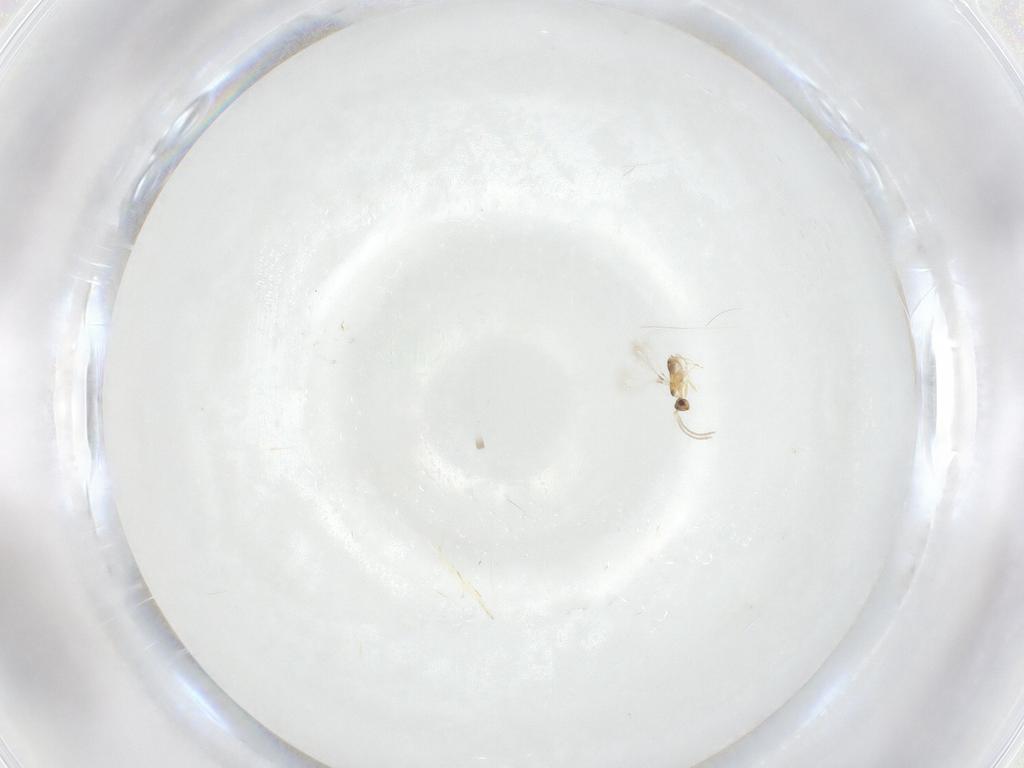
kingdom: Animalia
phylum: Arthropoda
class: Insecta
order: Hymenoptera
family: Mymaridae
